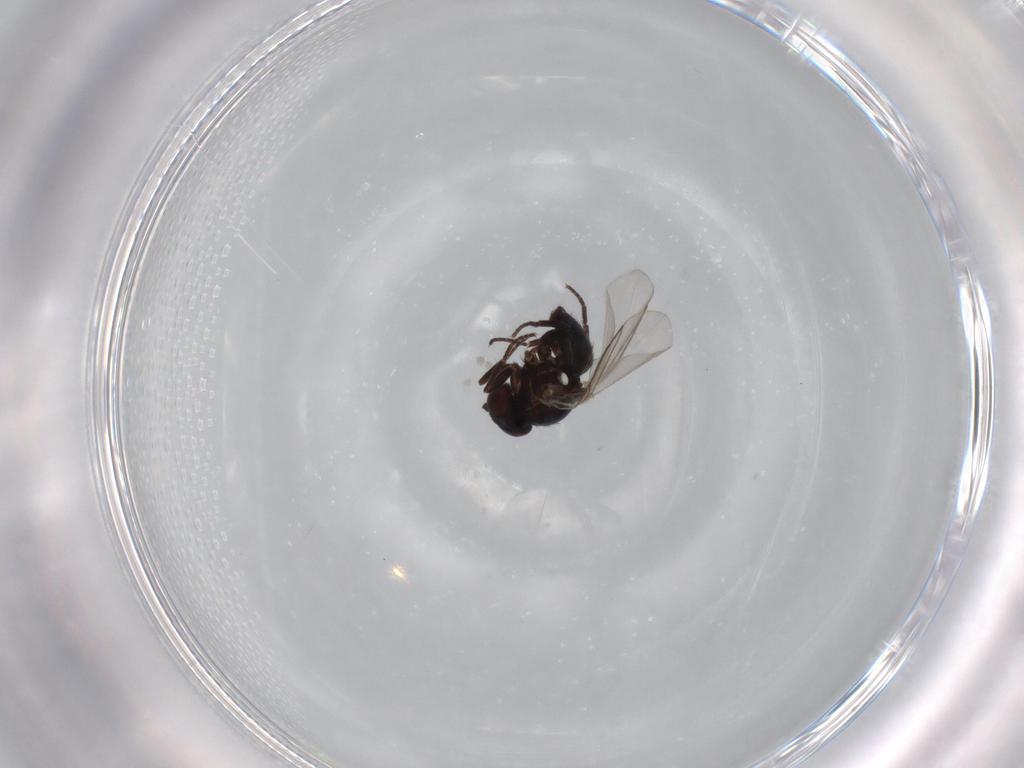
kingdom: Animalia
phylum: Arthropoda
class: Insecta
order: Diptera
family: Agromyzidae
